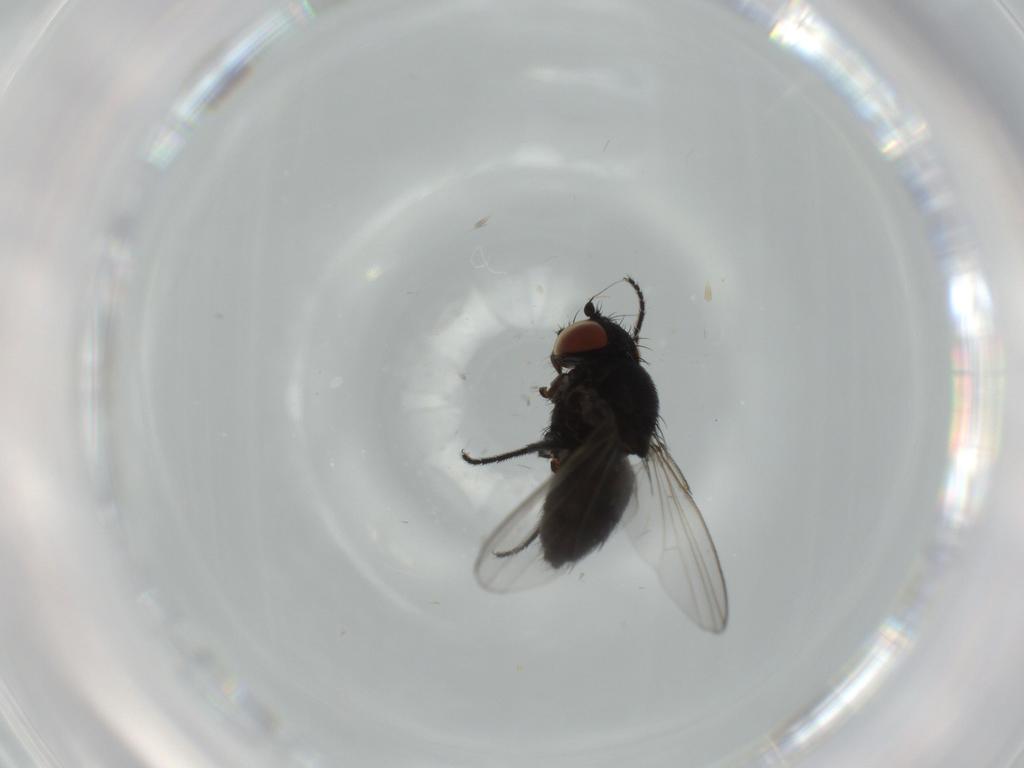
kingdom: Animalia
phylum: Arthropoda
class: Insecta
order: Diptera
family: Milichiidae
